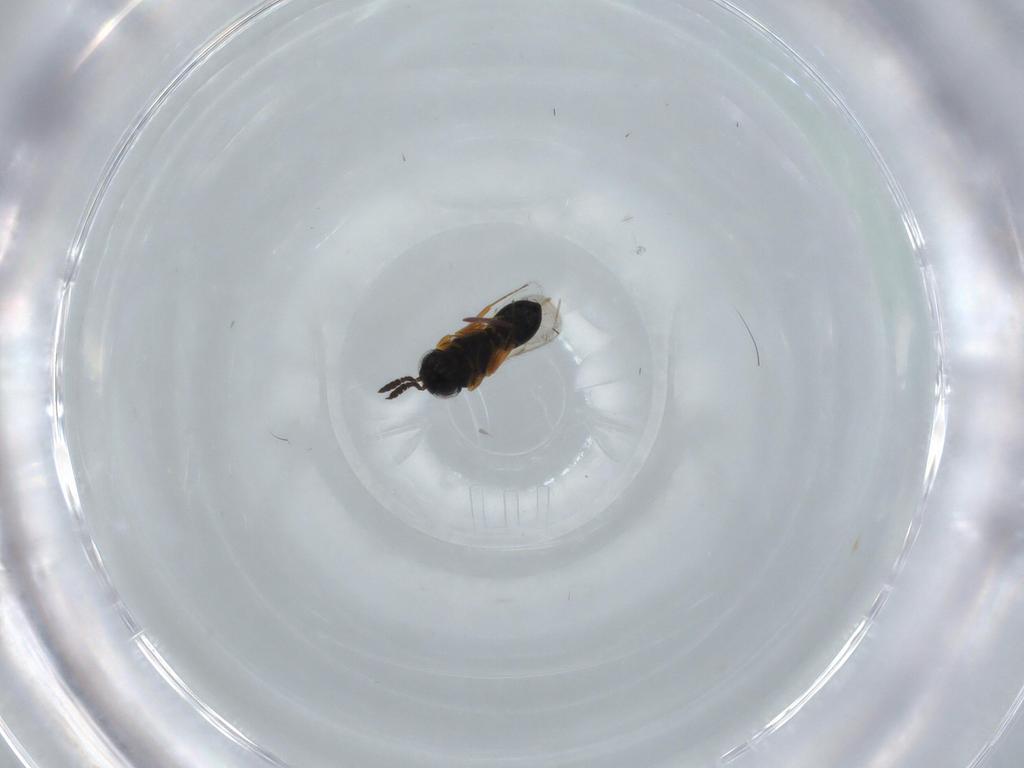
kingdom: Animalia
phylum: Arthropoda
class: Insecta
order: Hymenoptera
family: Scelionidae
